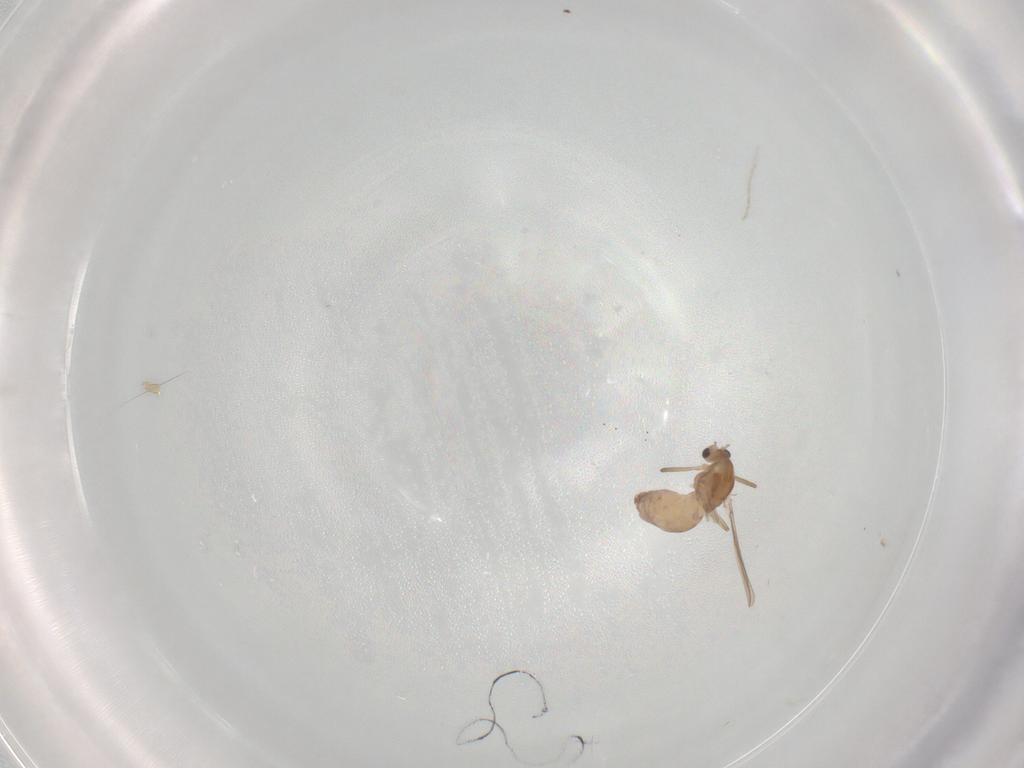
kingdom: Animalia
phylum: Arthropoda
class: Insecta
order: Diptera
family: Chironomidae
